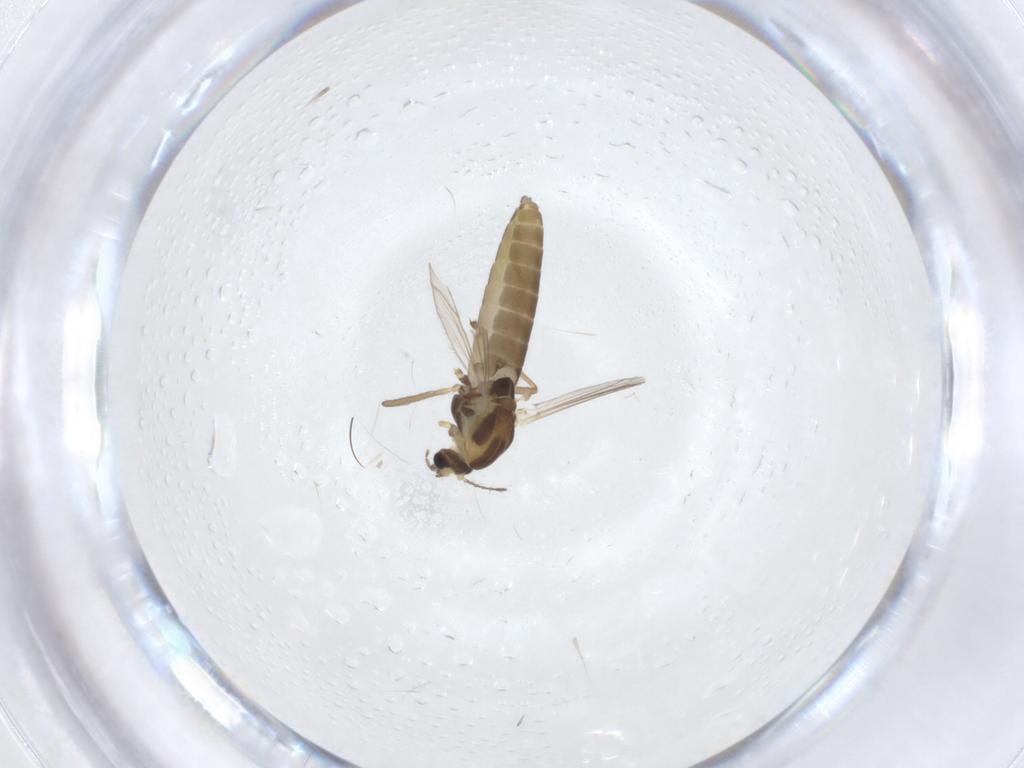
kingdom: Animalia
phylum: Arthropoda
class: Insecta
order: Diptera
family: Chironomidae
